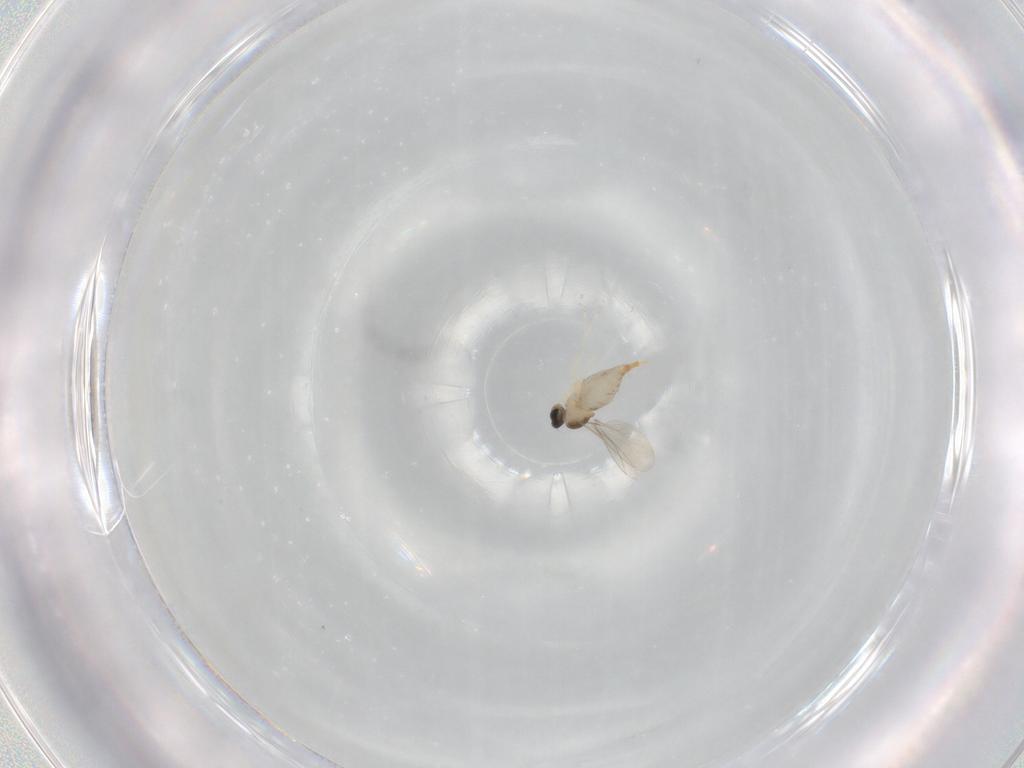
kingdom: Animalia
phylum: Arthropoda
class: Insecta
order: Diptera
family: Cecidomyiidae
